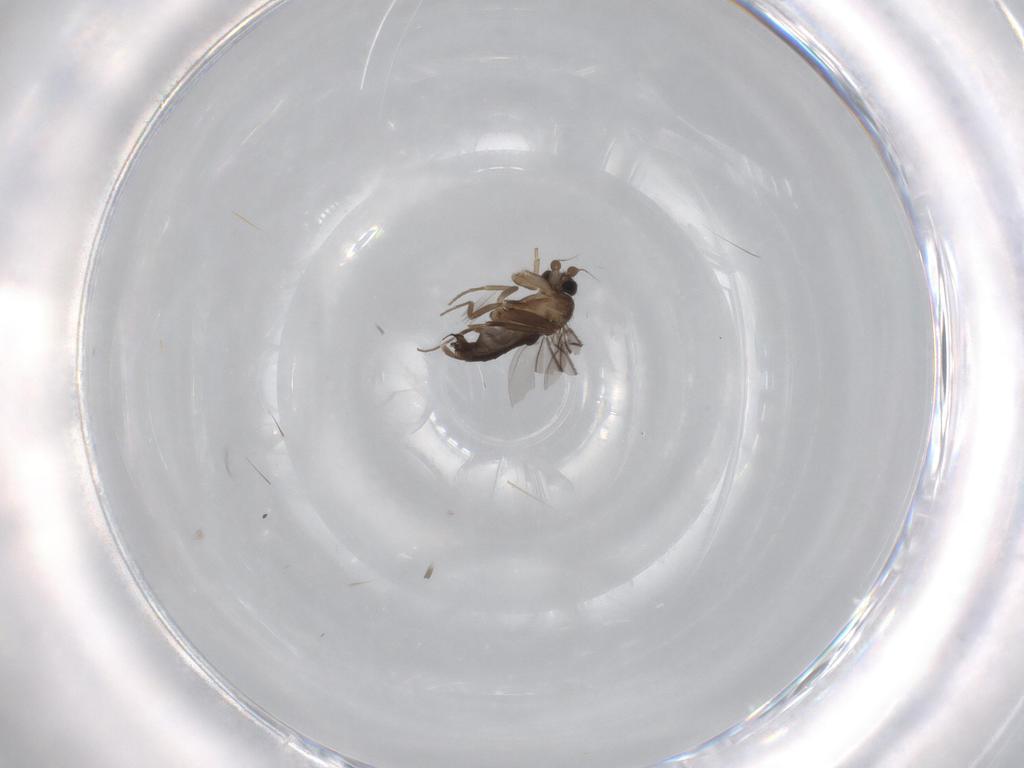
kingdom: Animalia
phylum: Arthropoda
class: Insecta
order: Diptera
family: Phoridae
